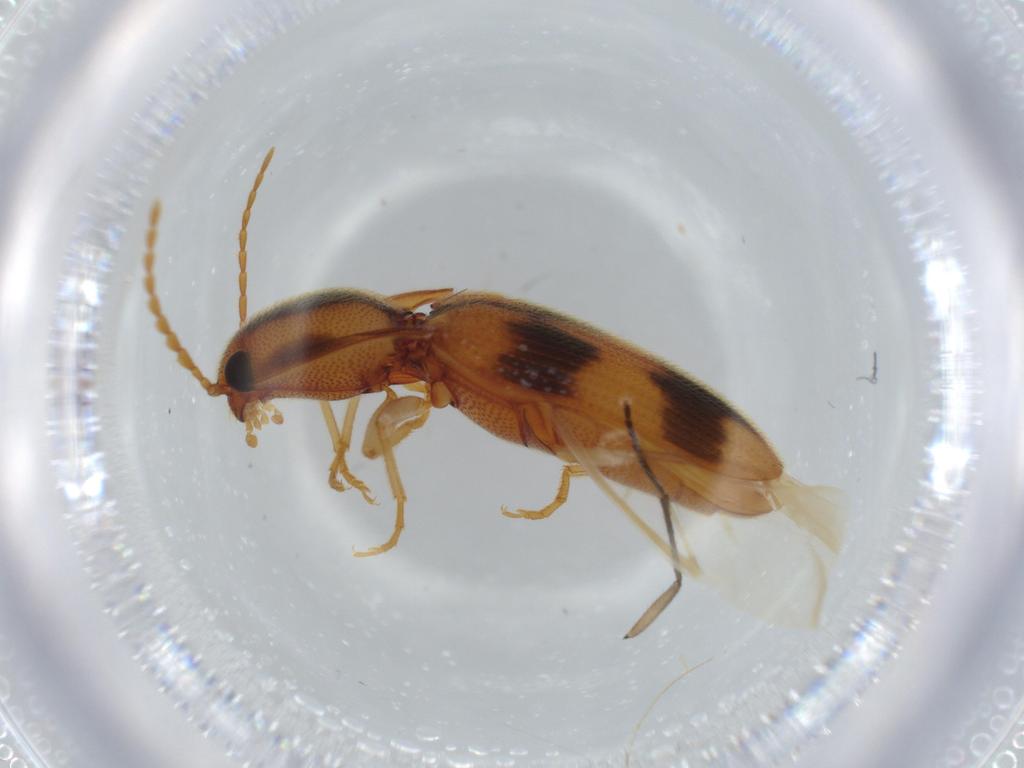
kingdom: Animalia
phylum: Arthropoda
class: Insecta
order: Coleoptera
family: Elateridae
